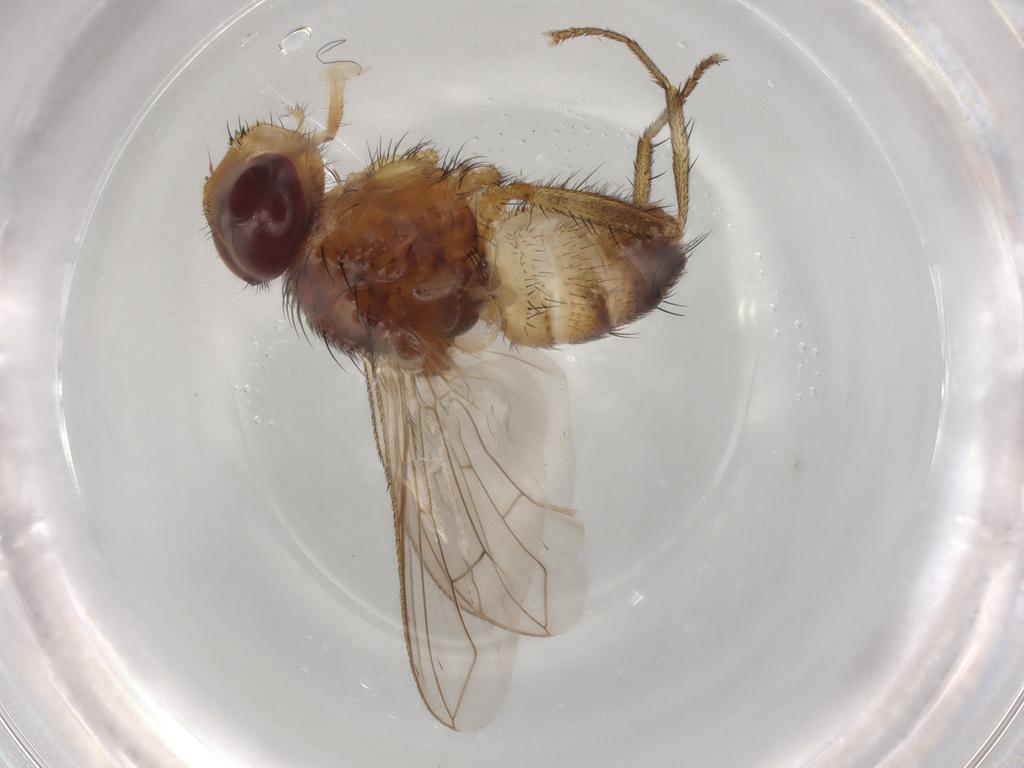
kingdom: Animalia
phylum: Arthropoda
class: Insecta
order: Diptera
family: Tachinidae
